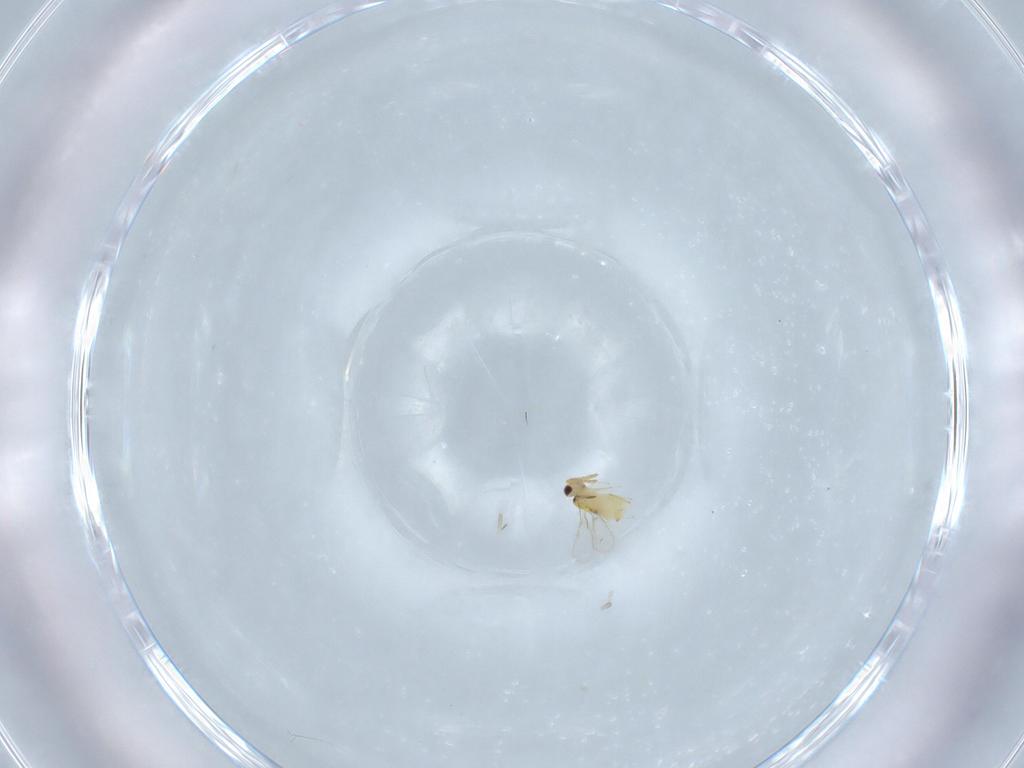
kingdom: Animalia
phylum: Arthropoda
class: Insecta
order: Hymenoptera
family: Aphelinidae
